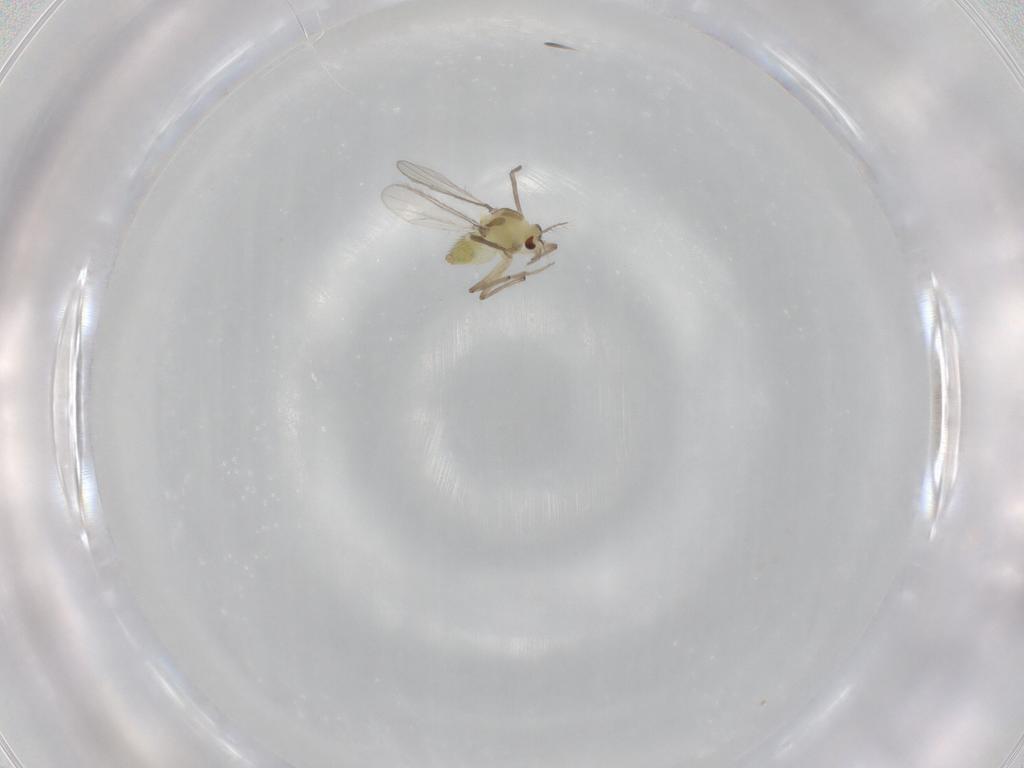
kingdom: Animalia
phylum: Arthropoda
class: Insecta
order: Diptera
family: Chironomidae
